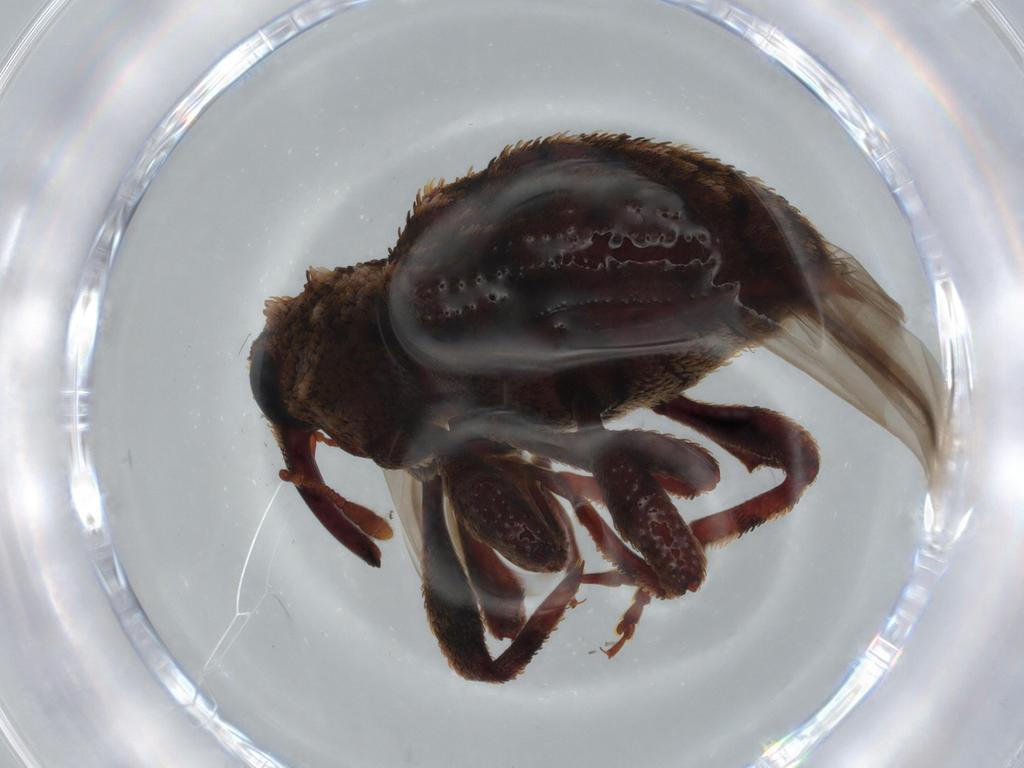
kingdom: Animalia
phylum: Arthropoda
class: Insecta
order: Coleoptera
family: Curculionidae
